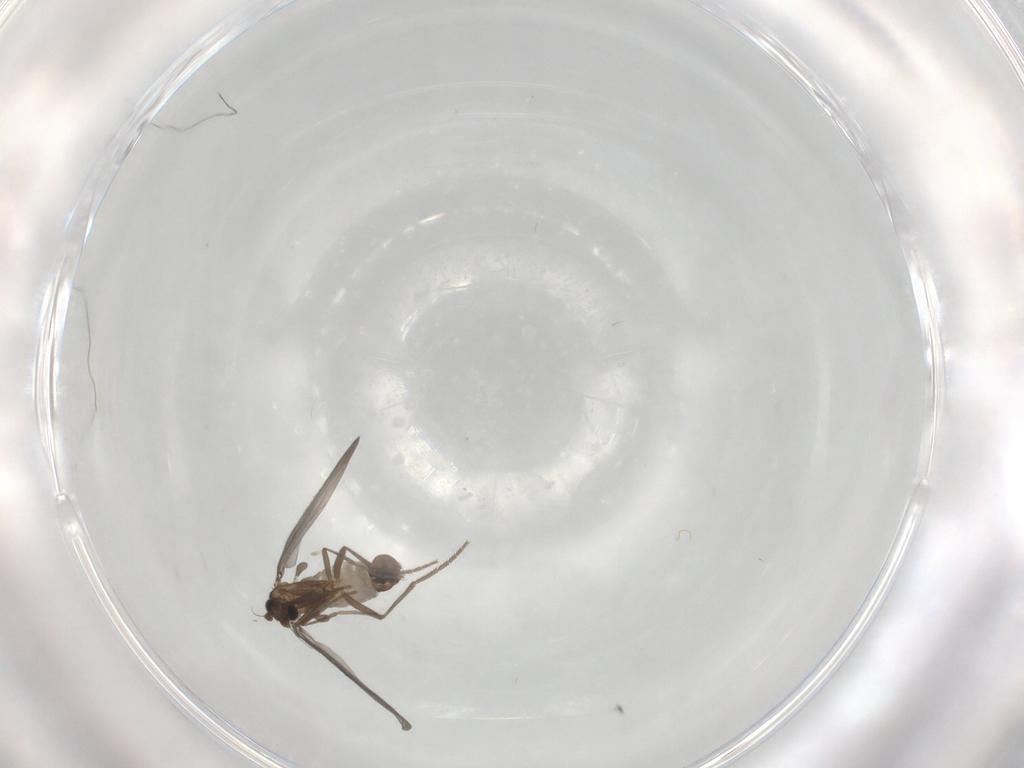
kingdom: Animalia
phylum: Arthropoda
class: Insecta
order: Diptera
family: Phoridae
